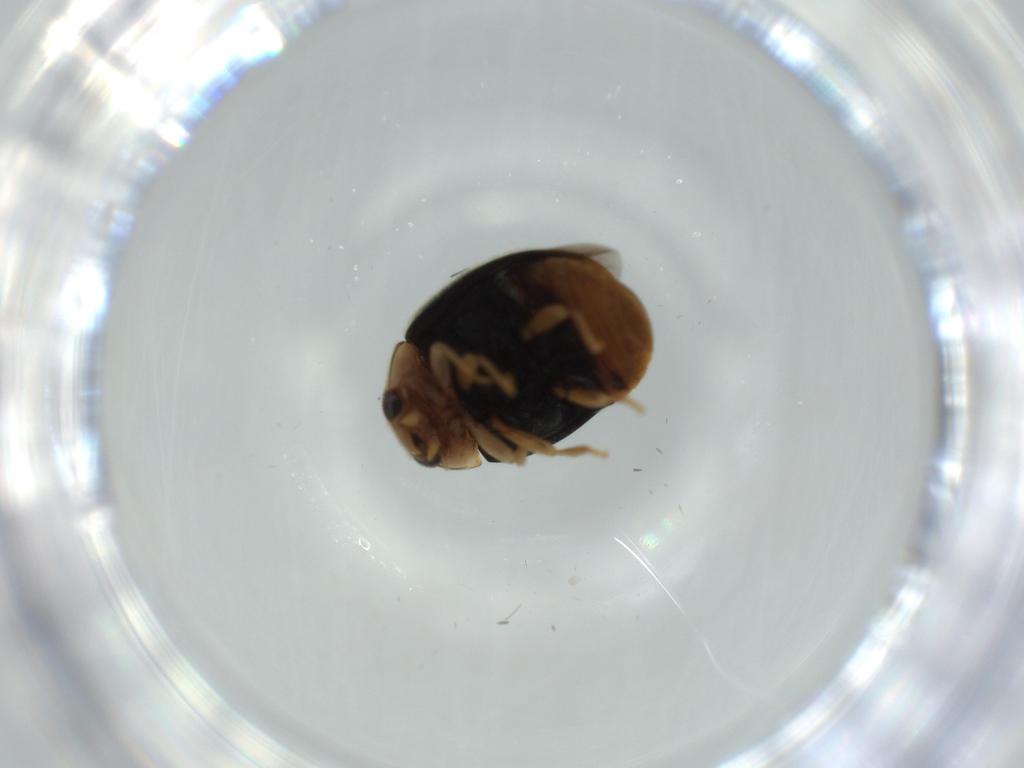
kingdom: Animalia
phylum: Arthropoda
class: Insecta
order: Coleoptera
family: Coccinellidae
